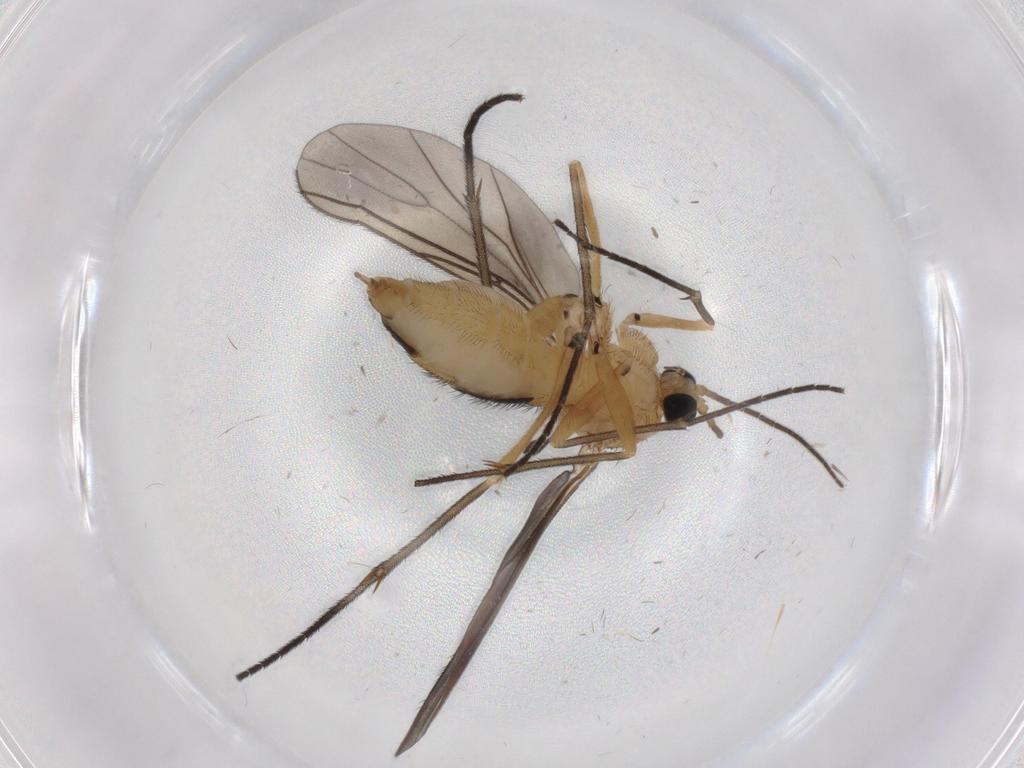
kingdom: Animalia
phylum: Arthropoda
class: Insecta
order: Diptera
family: Sciaridae
